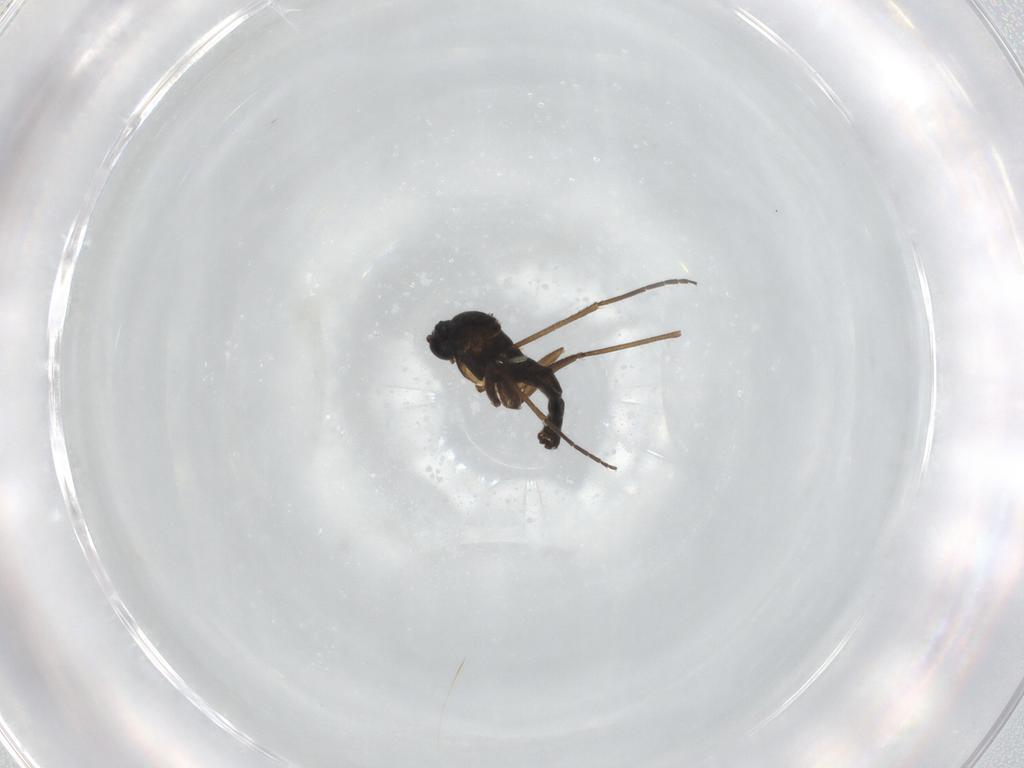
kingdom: Animalia
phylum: Arthropoda
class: Insecta
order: Diptera
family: Sciaridae
